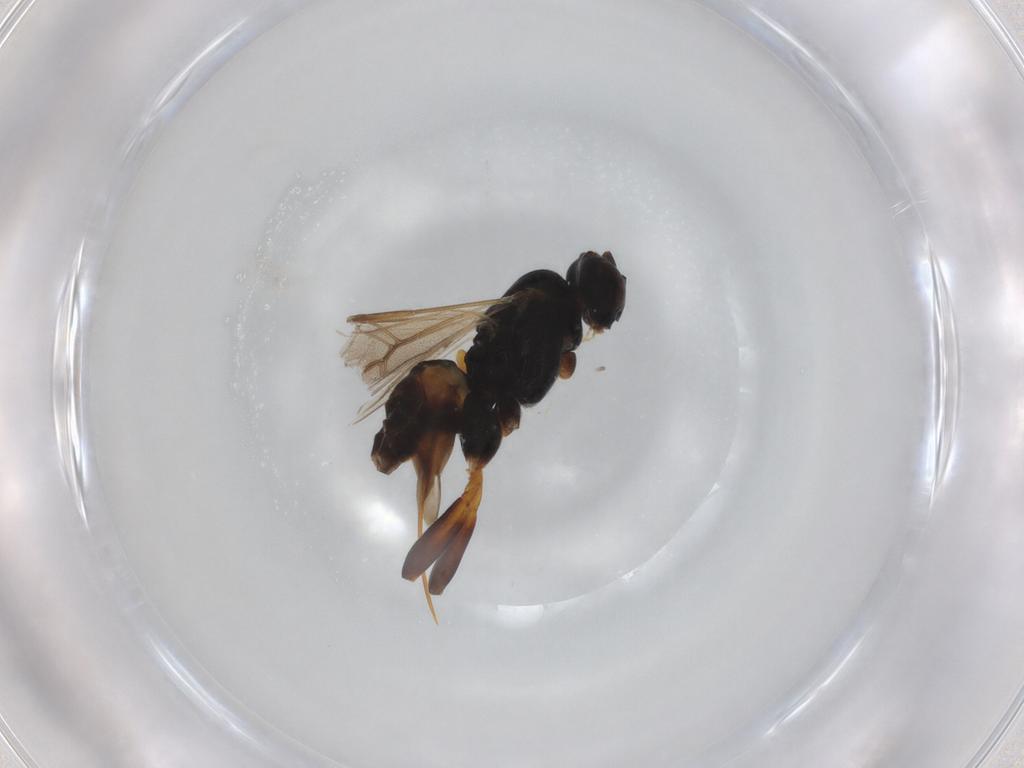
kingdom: Animalia
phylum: Arthropoda
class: Insecta
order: Hymenoptera
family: Braconidae
